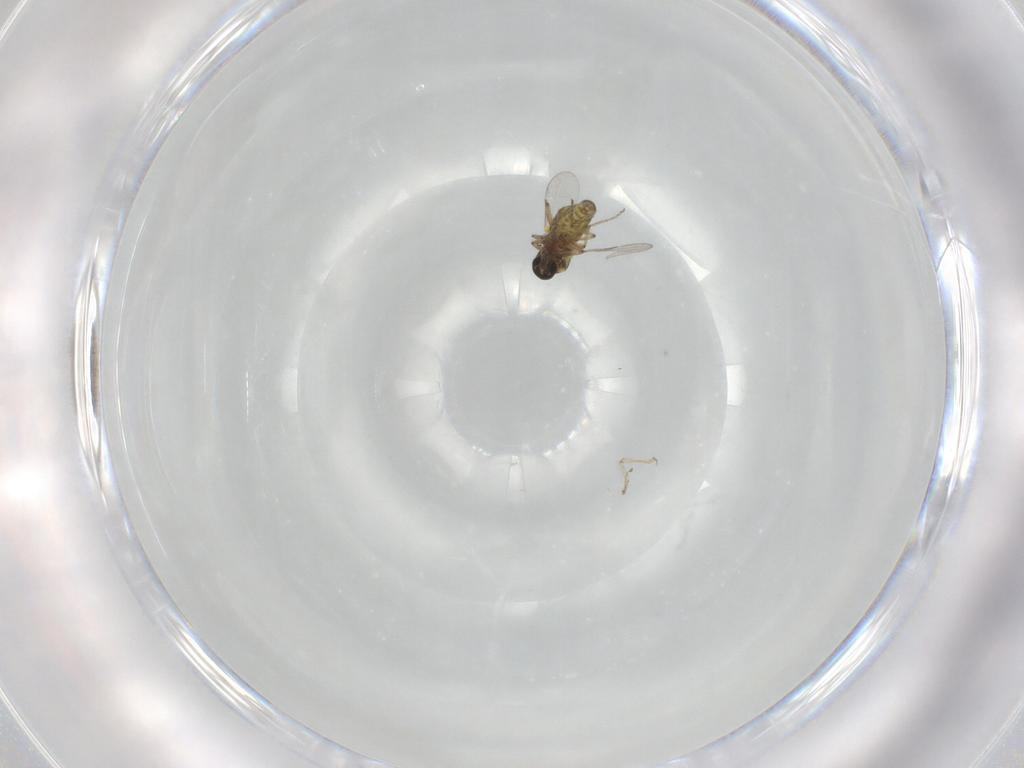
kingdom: Animalia
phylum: Arthropoda
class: Insecta
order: Diptera
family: Ceratopogonidae
